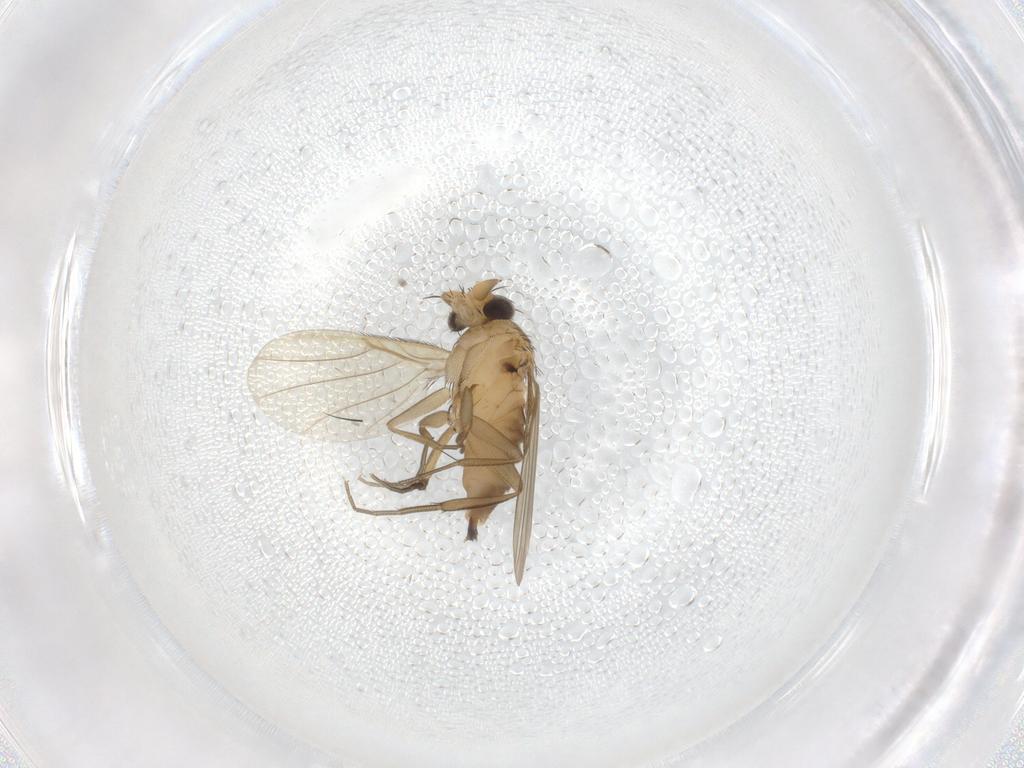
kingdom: Animalia
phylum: Arthropoda
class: Insecta
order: Diptera
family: Phoridae
